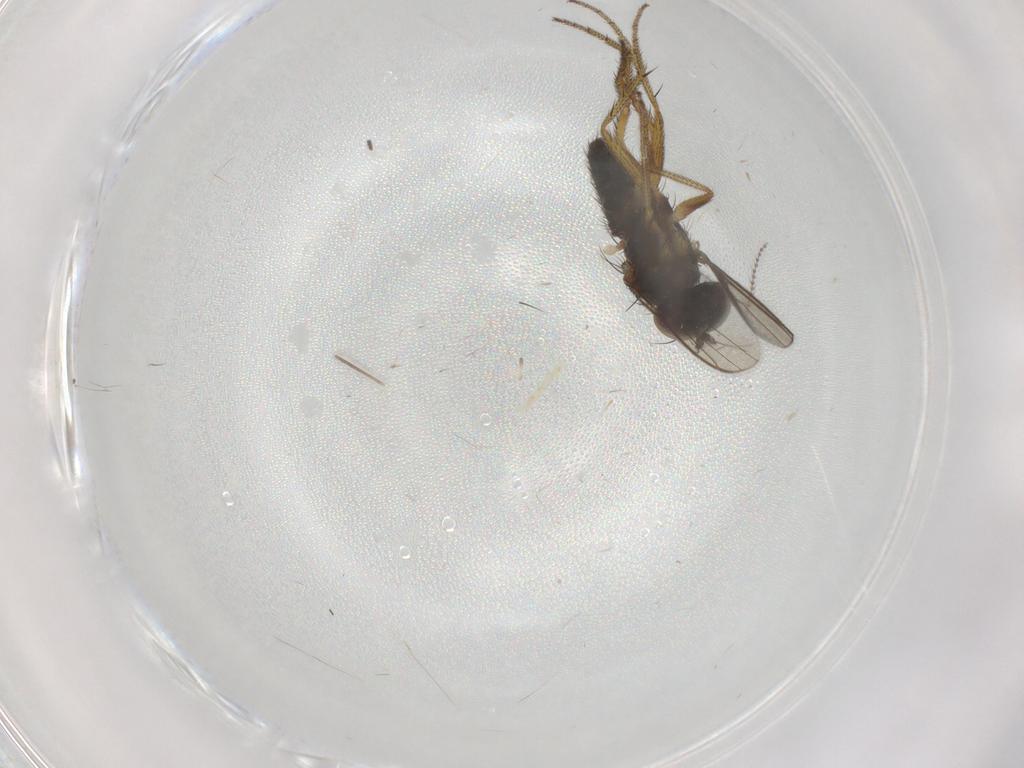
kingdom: Animalia
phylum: Arthropoda
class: Insecta
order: Diptera
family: Dolichopodidae
